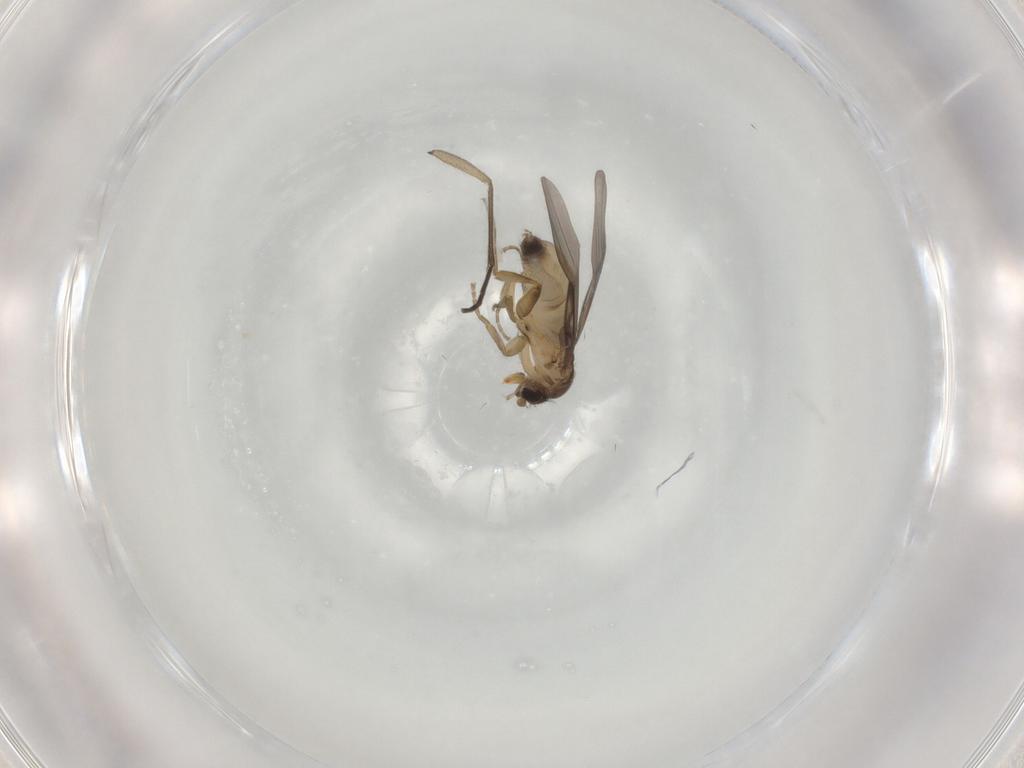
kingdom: Animalia
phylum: Arthropoda
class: Insecta
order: Diptera
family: Phoridae
